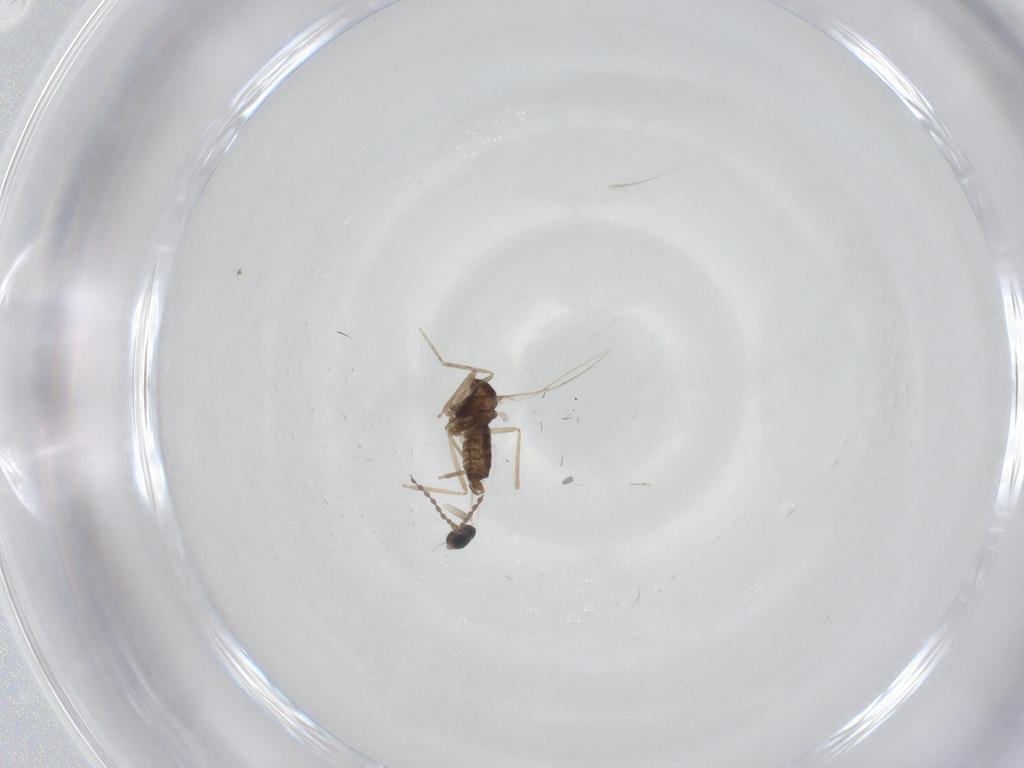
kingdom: Animalia
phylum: Arthropoda
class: Insecta
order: Diptera
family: Cecidomyiidae
